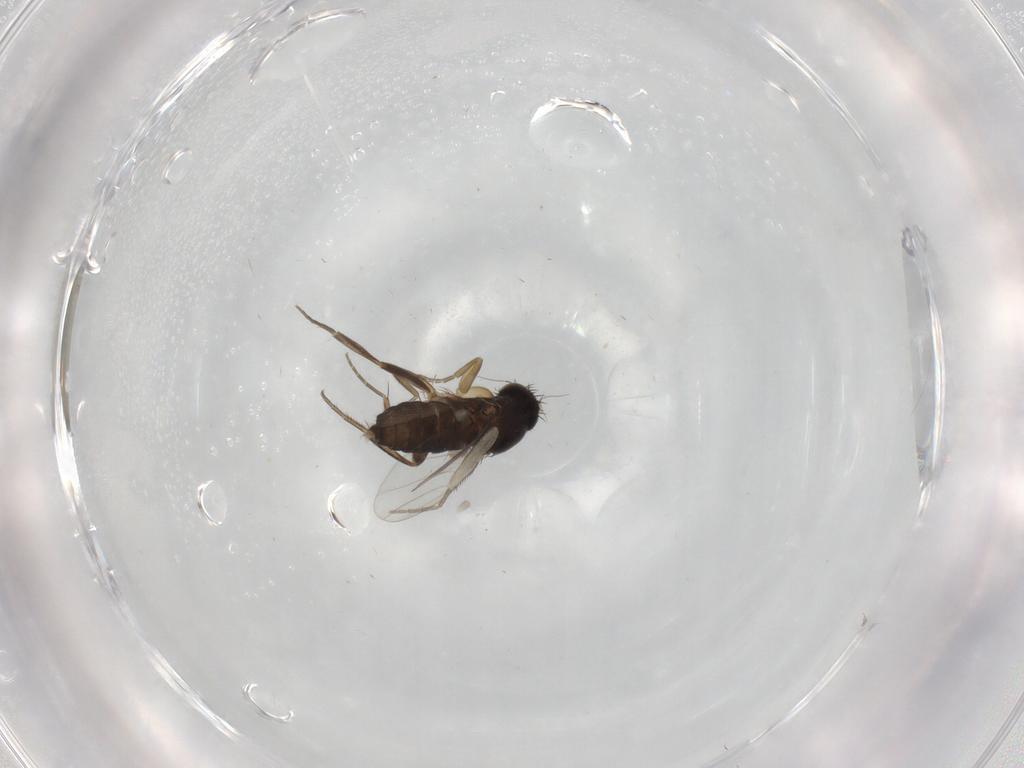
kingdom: Animalia
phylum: Arthropoda
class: Insecta
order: Diptera
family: Phoridae
